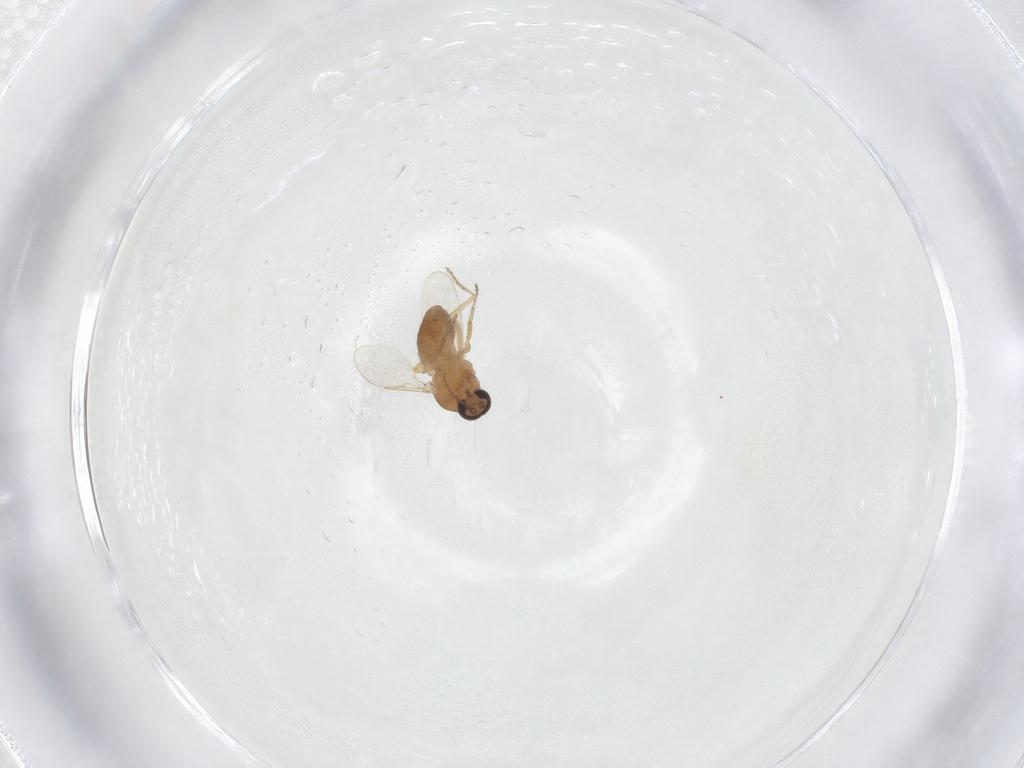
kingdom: Animalia
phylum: Arthropoda
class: Insecta
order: Diptera
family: Ceratopogonidae
